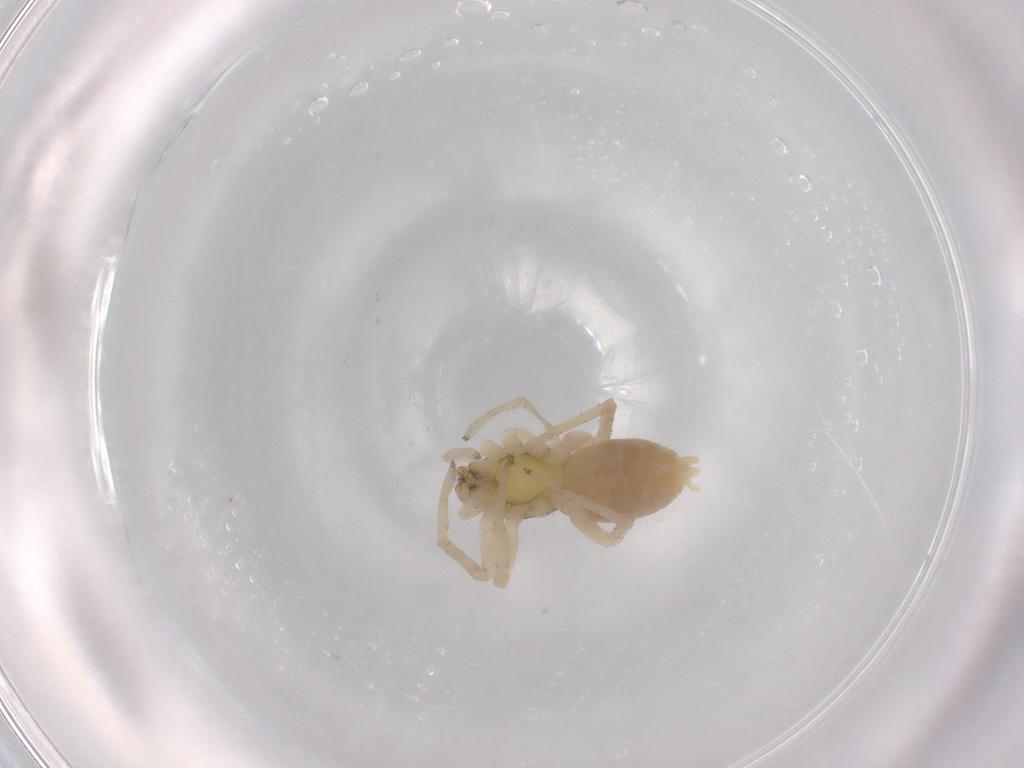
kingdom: Animalia
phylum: Arthropoda
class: Arachnida
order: Araneae
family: Anyphaenidae
